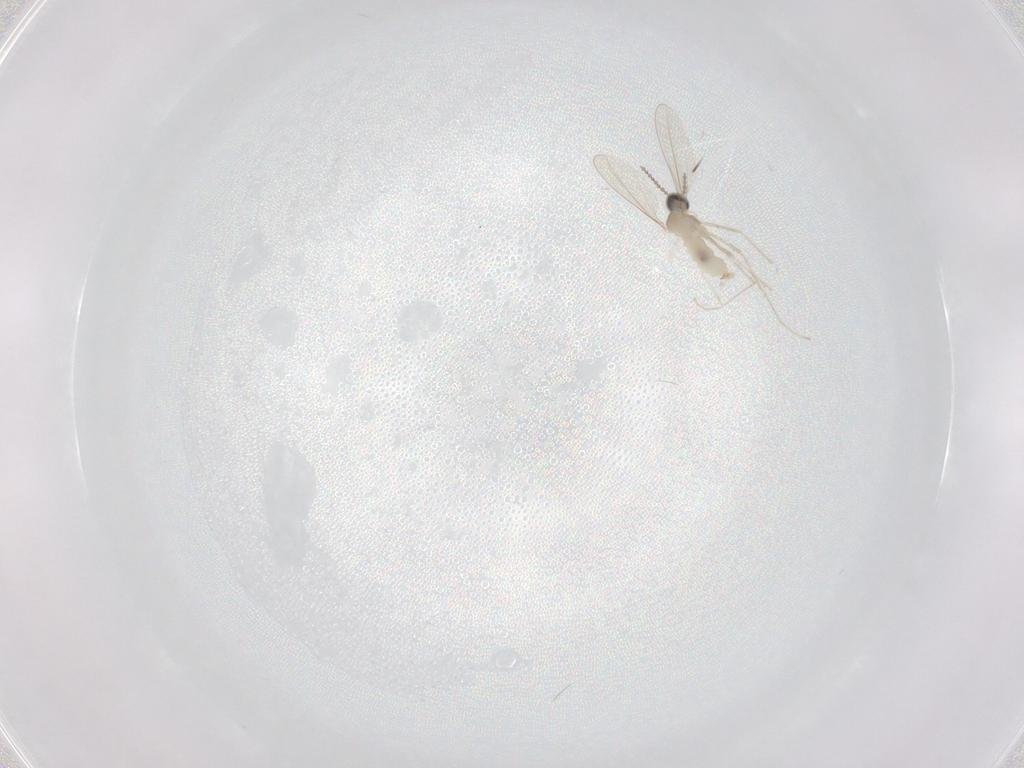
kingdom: Animalia
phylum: Arthropoda
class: Insecta
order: Diptera
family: Cecidomyiidae
